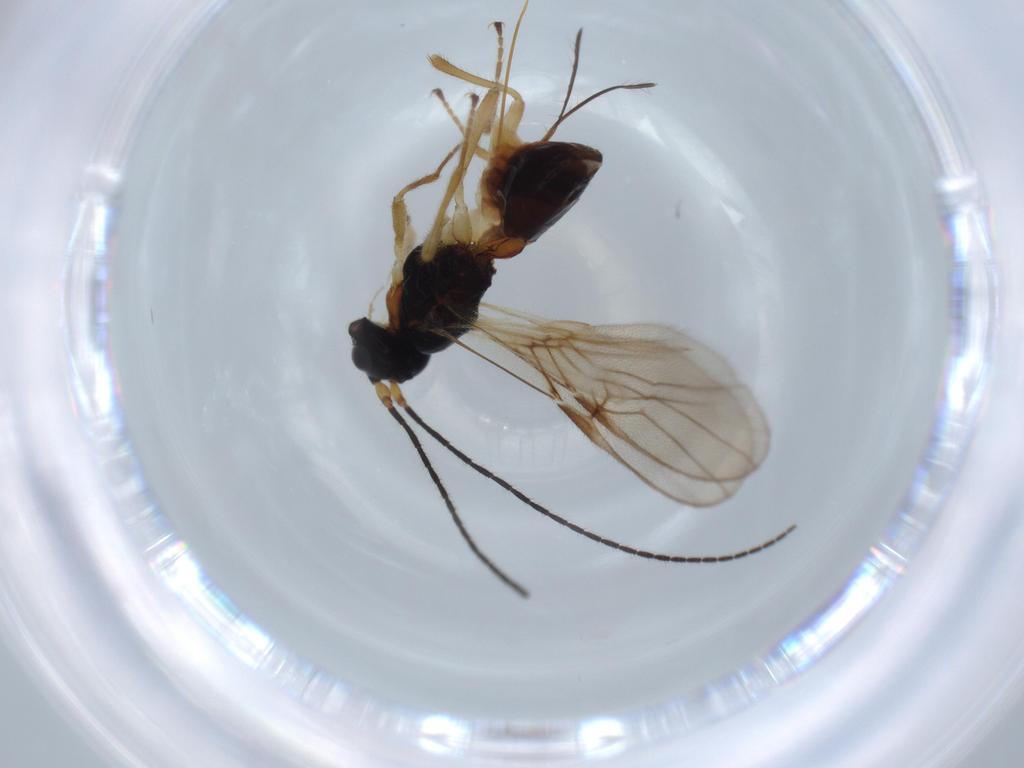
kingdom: Animalia
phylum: Arthropoda
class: Insecta
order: Hymenoptera
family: Braconidae
